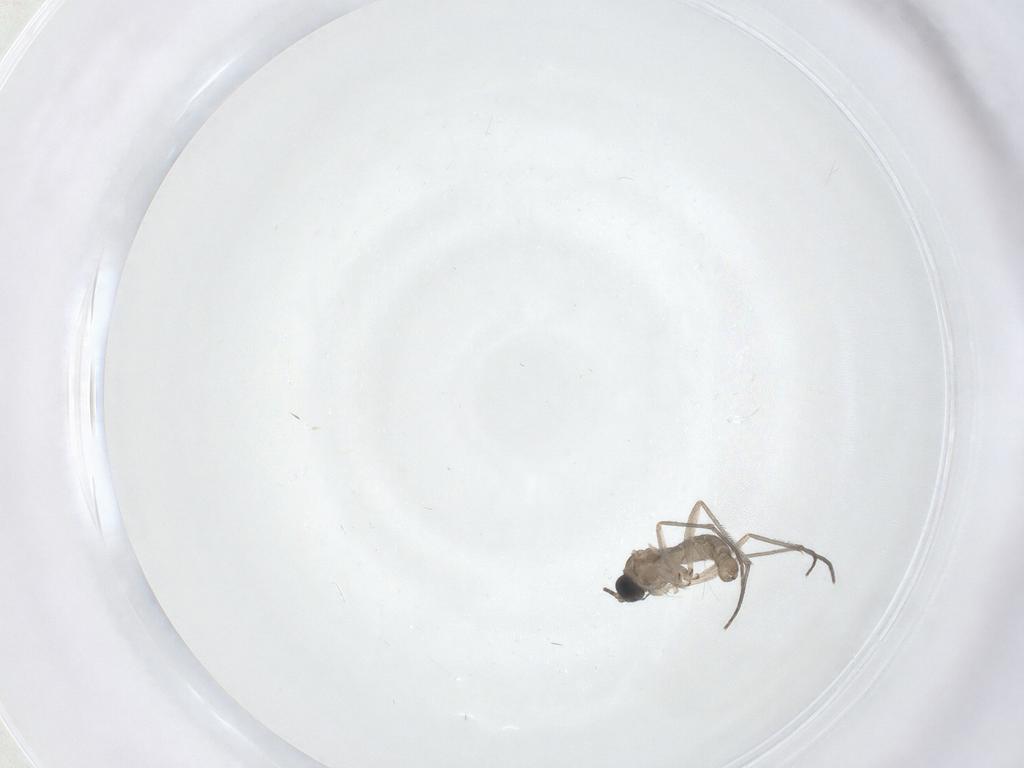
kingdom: Animalia
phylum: Arthropoda
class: Insecta
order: Diptera
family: Sciaridae
